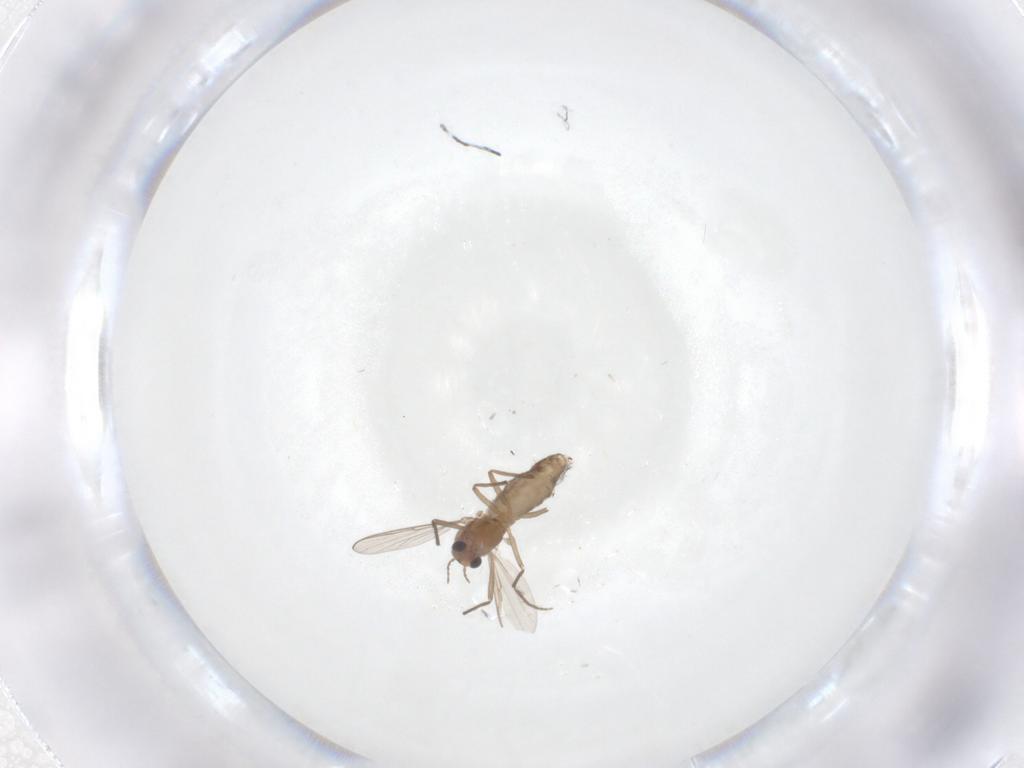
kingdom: Animalia
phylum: Arthropoda
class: Insecta
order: Diptera
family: Chironomidae
